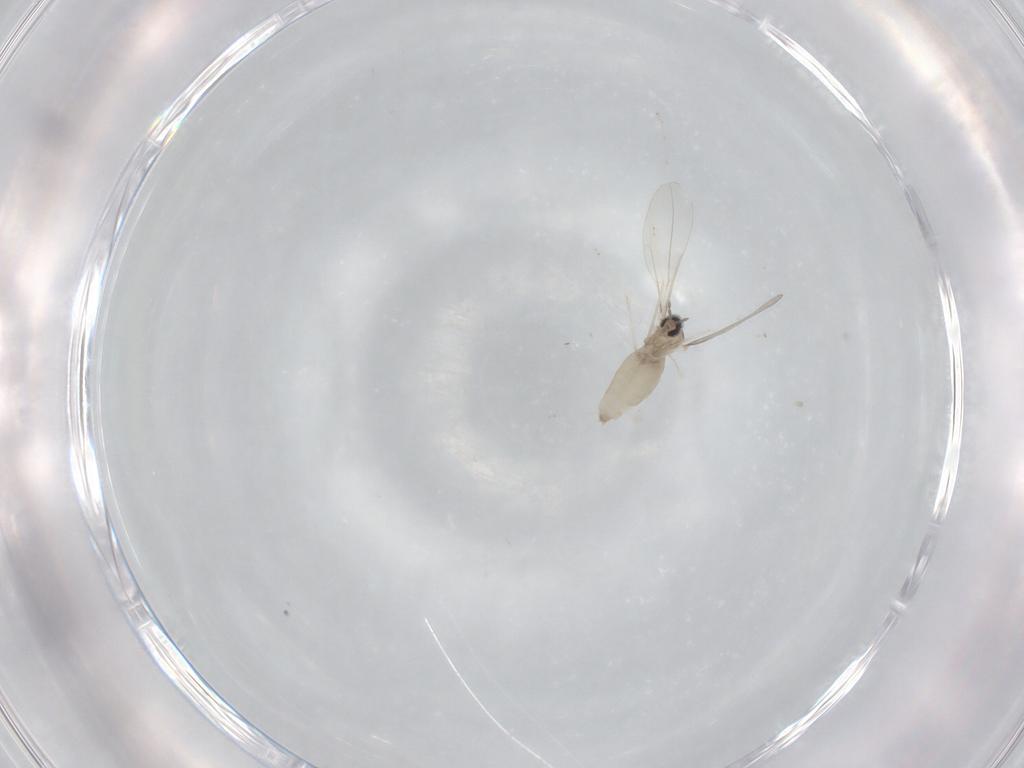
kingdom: Animalia
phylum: Arthropoda
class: Insecta
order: Diptera
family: Cecidomyiidae
